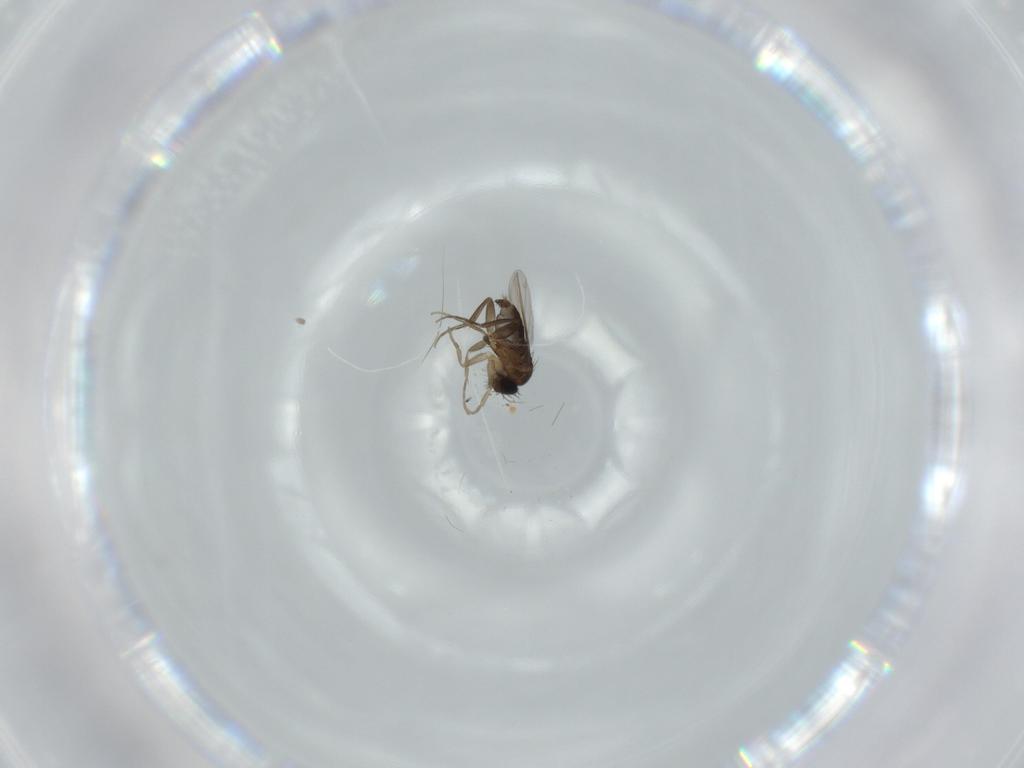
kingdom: Animalia
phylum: Arthropoda
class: Insecta
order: Diptera
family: Phoridae
